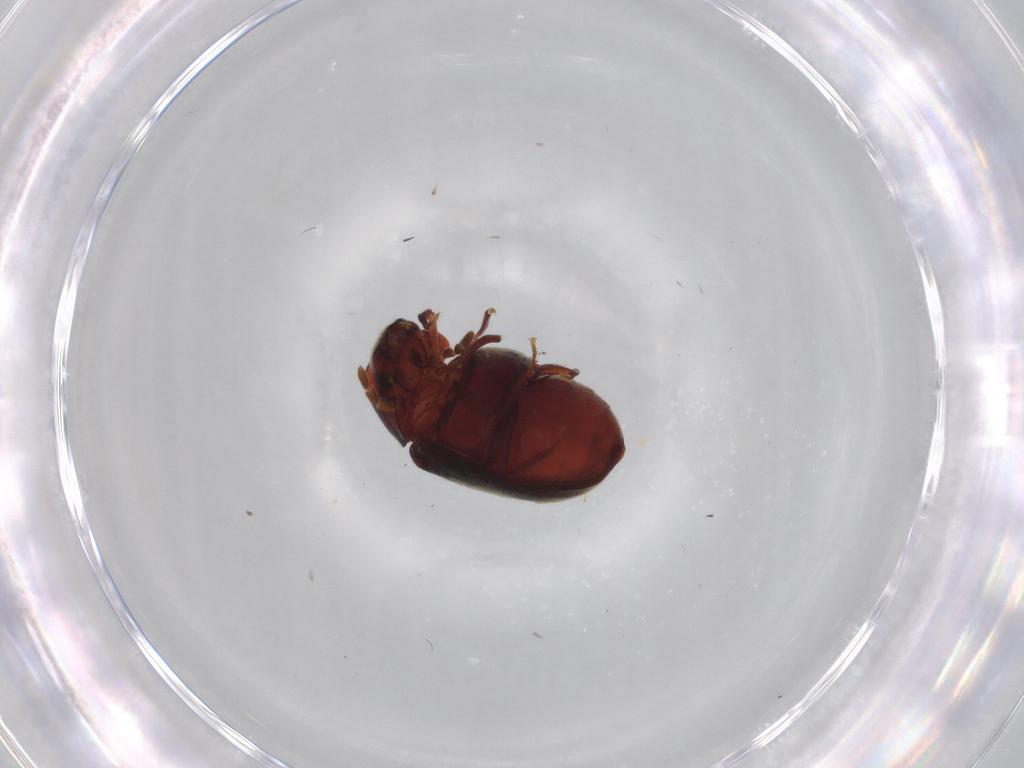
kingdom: Animalia
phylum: Arthropoda
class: Insecta
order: Coleoptera
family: Ptinidae
